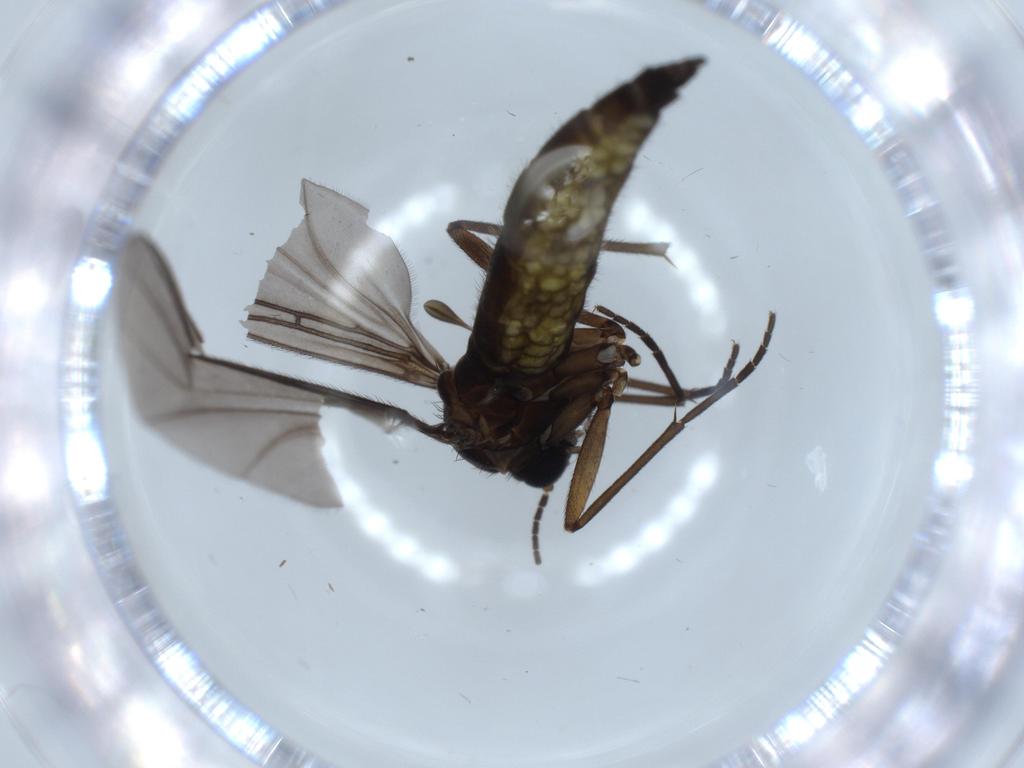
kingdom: Animalia
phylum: Arthropoda
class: Insecta
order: Diptera
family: Sciaridae
